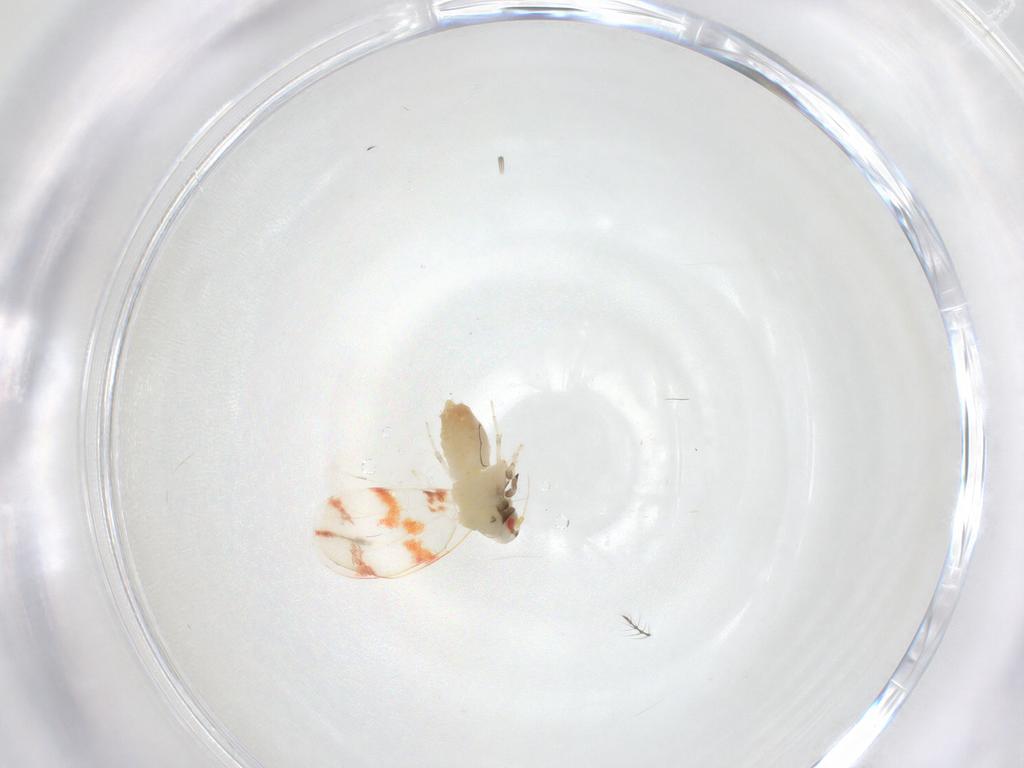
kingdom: Animalia
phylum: Arthropoda
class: Insecta
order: Hemiptera
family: Aleyrodidae
